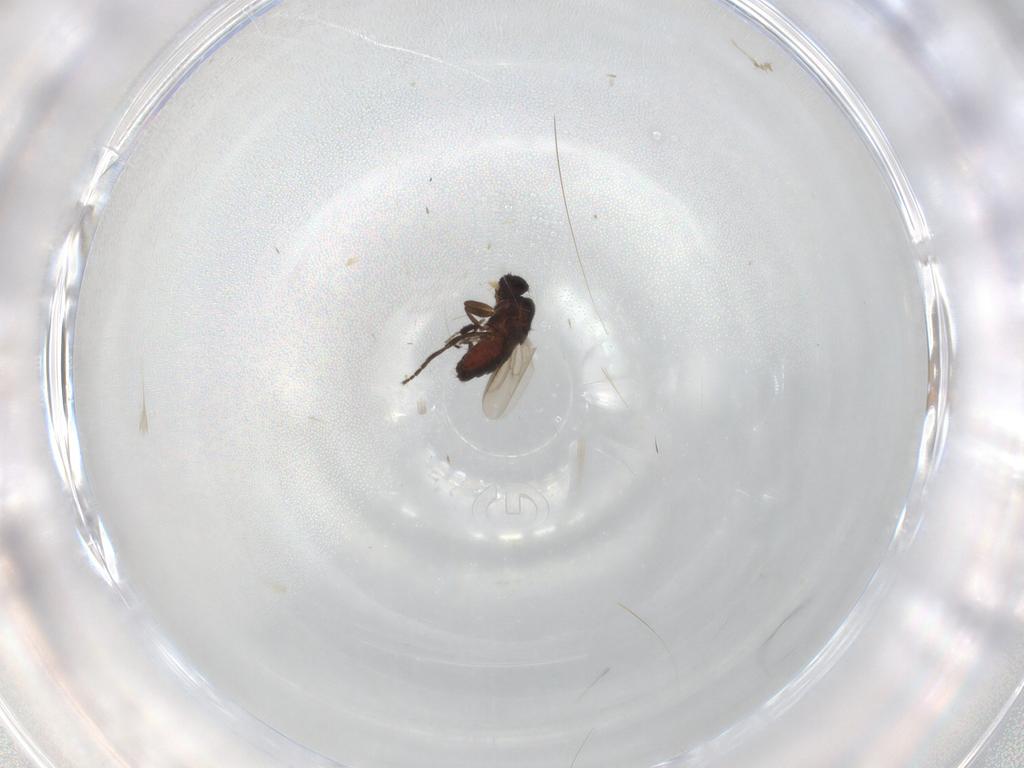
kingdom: Animalia
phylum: Arthropoda
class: Insecta
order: Diptera
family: Sphaeroceridae
